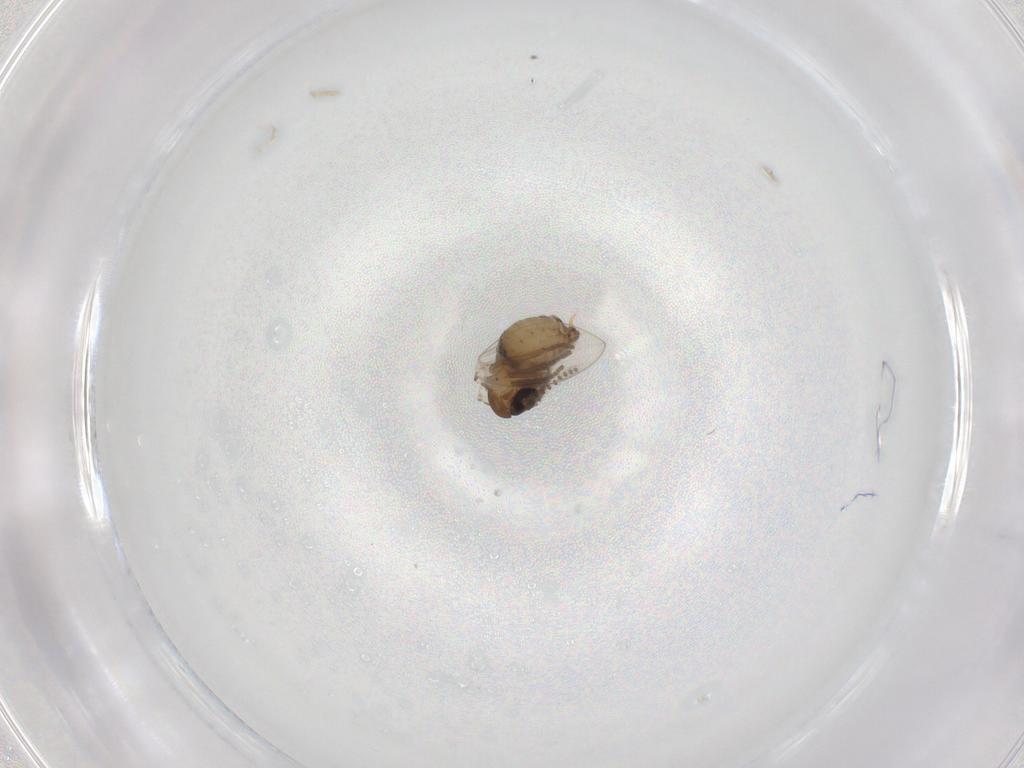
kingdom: Animalia
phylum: Arthropoda
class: Insecta
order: Diptera
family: Psychodidae
